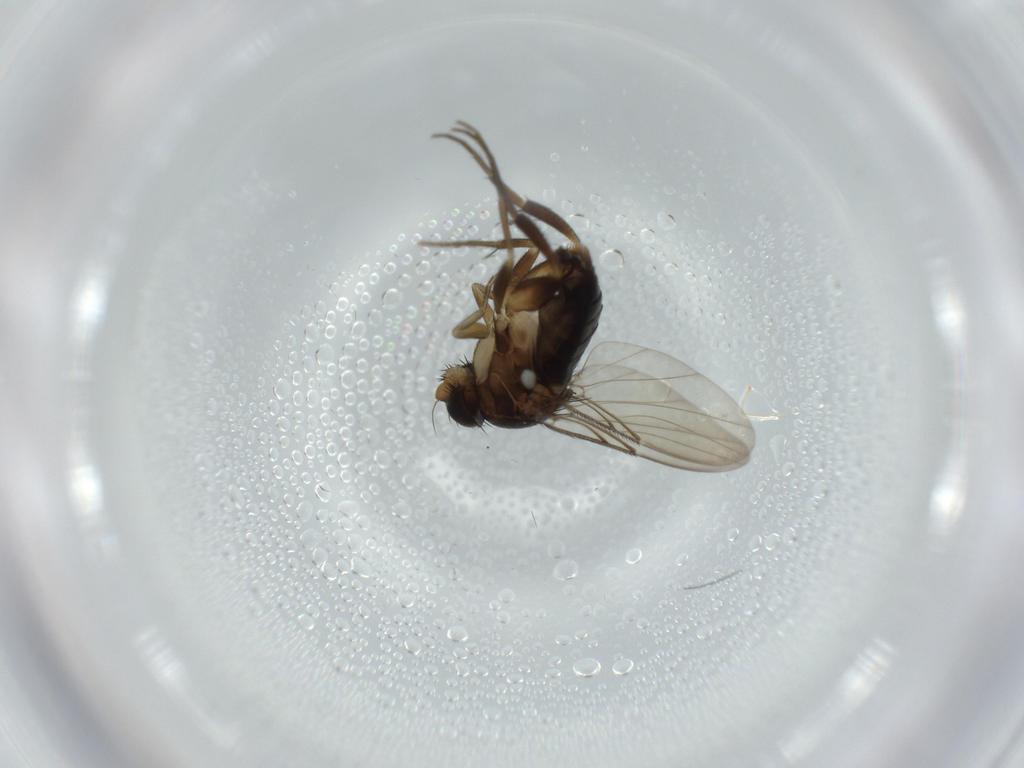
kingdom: Animalia
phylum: Arthropoda
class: Insecta
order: Diptera
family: Phoridae
